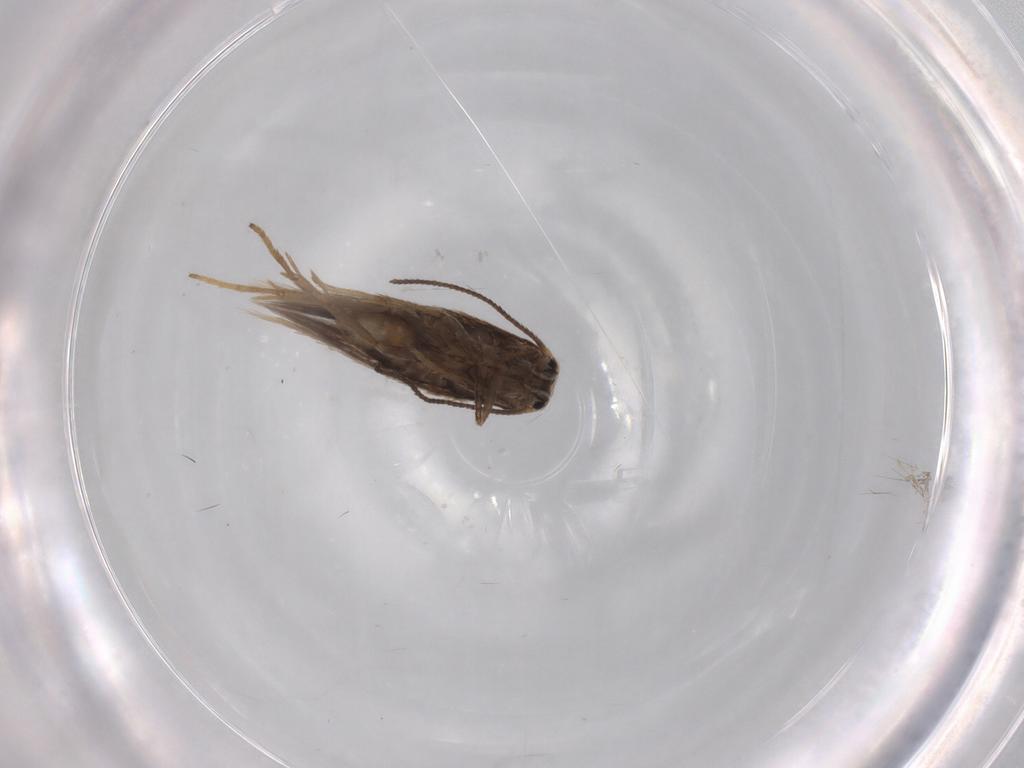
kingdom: Animalia
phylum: Arthropoda
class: Insecta
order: Lepidoptera
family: Nepticulidae
